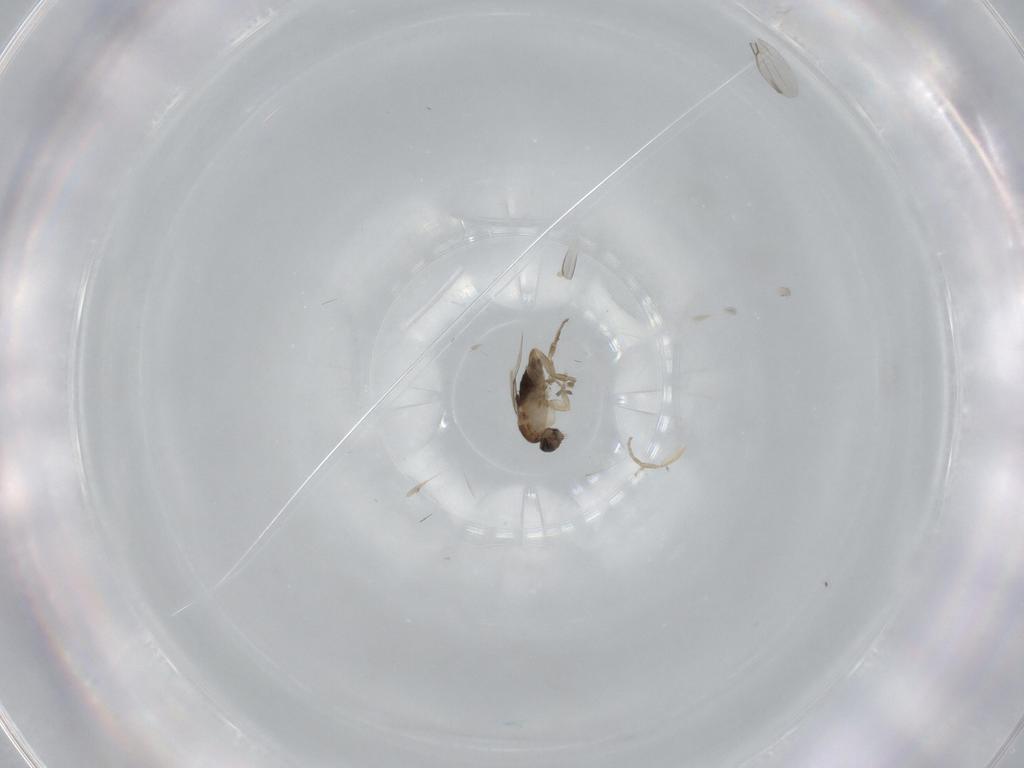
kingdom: Animalia
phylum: Arthropoda
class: Insecta
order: Diptera
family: Phoridae
